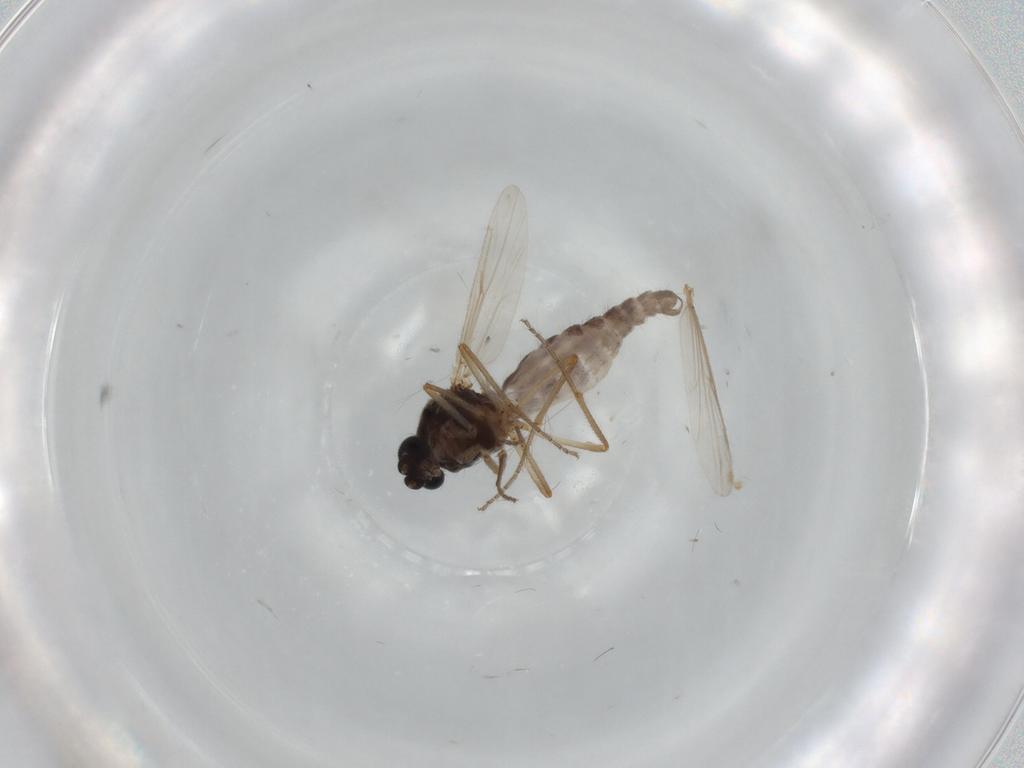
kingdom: Animalia
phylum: Arthropoda
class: Insecta
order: Diptera
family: Ceratopogonidae
